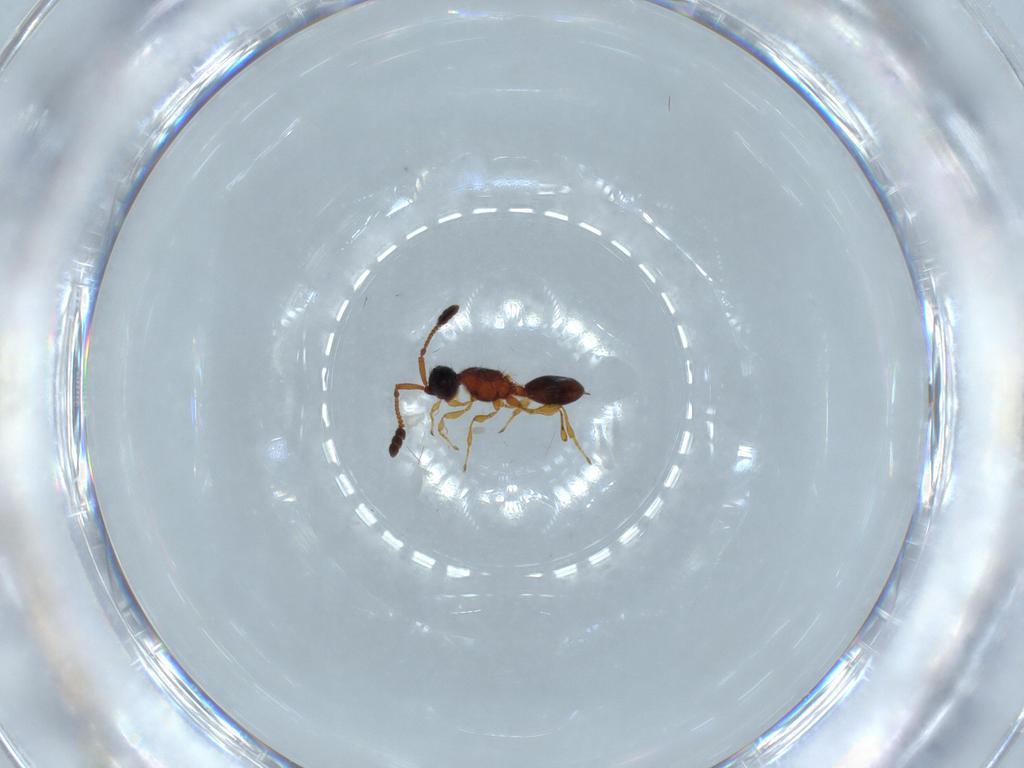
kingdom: Animalia
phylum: Arthropoda
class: Insecta
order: Hymenoptera
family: Diapriidae
